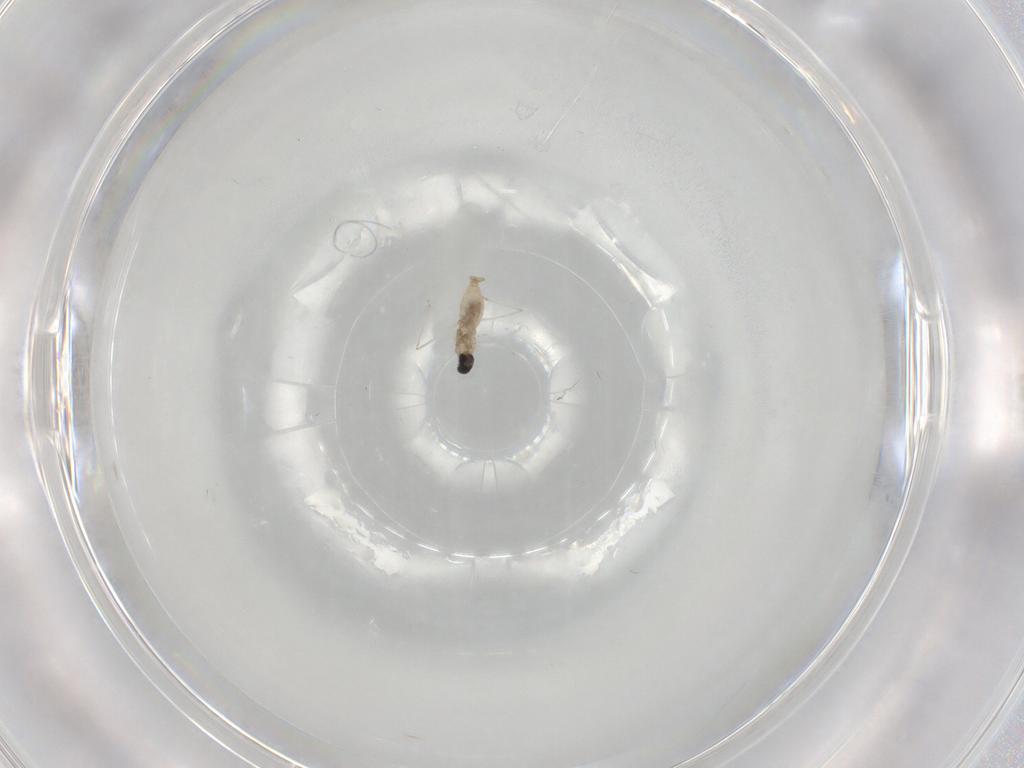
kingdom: Animalia
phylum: Arthropoda
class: Insecta
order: Diptera
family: Cecidomyiidae
